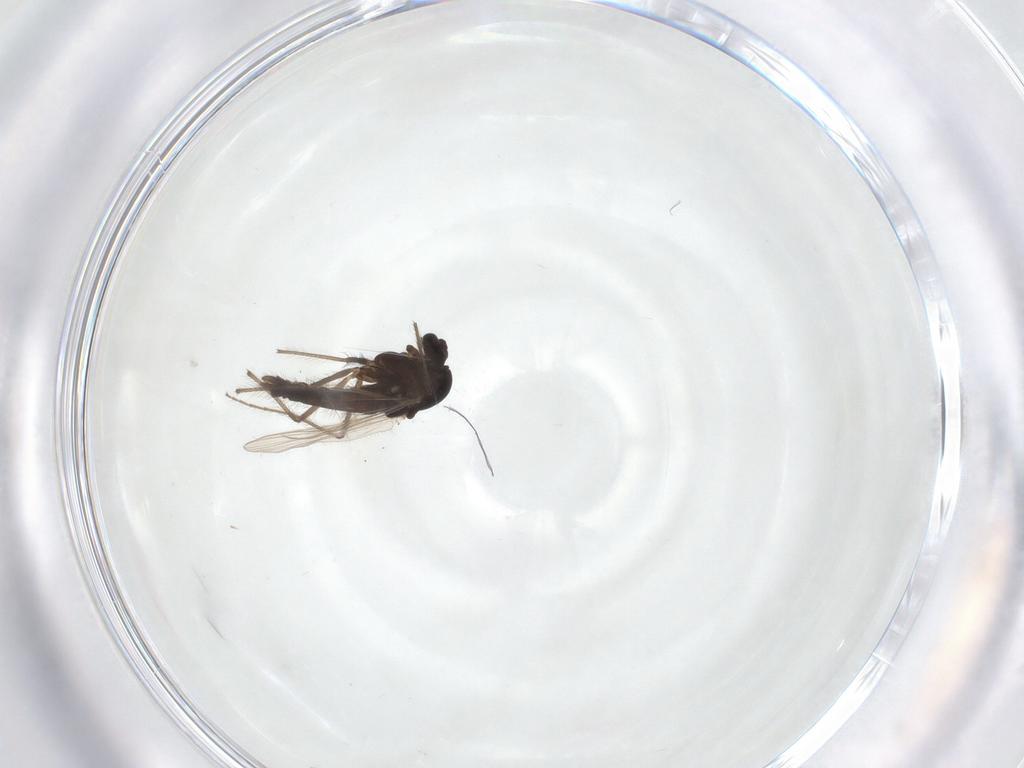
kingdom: Animalia
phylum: Arthropoda
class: Insecta
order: Diptera
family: Chironomidae
